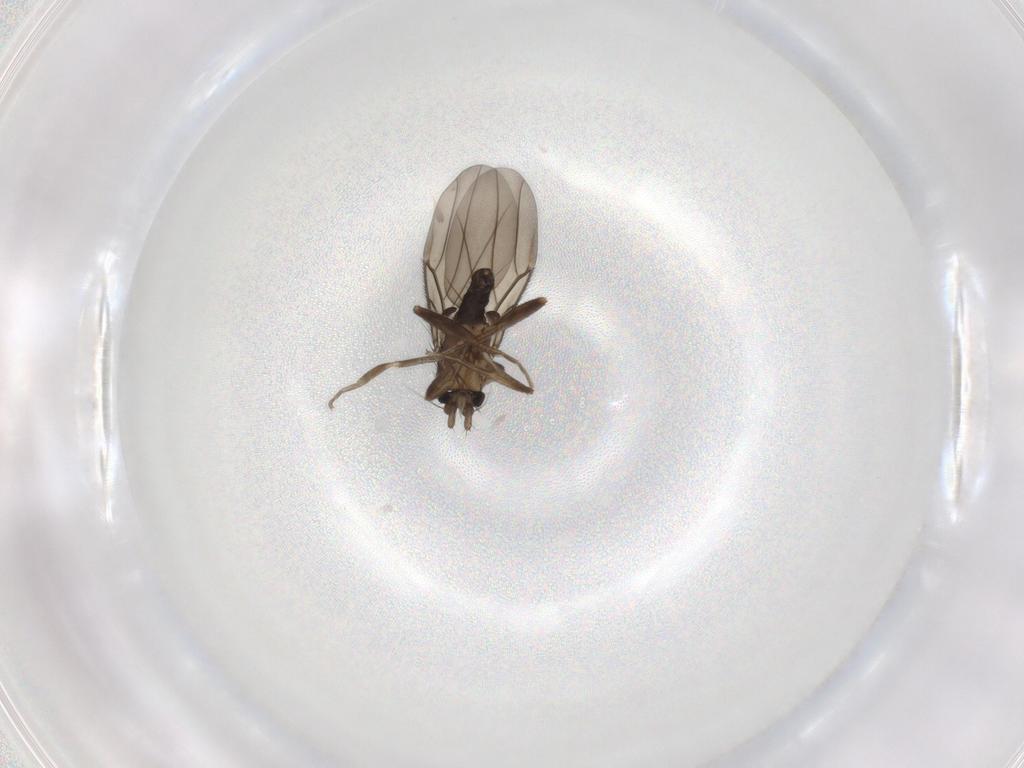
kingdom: Animalia
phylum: Arthropoda
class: Insecta
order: Diptera
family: Phoridae
